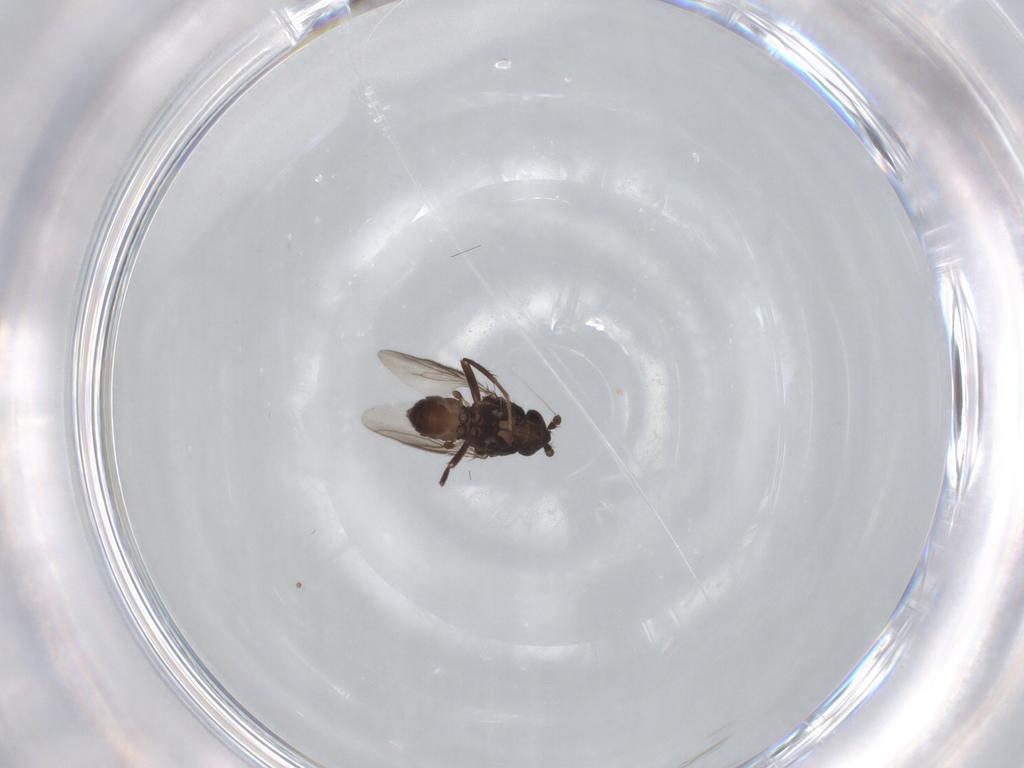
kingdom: Animalia
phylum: Arthropoda
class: Insecta
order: Diptera
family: Sphaeroceridae
